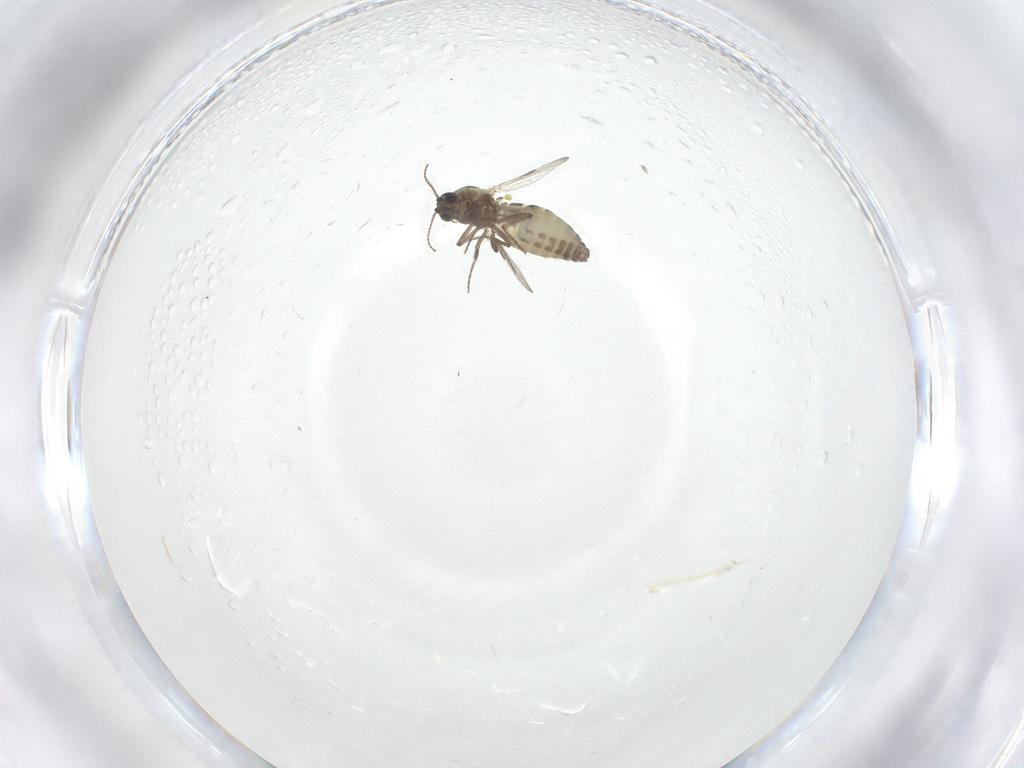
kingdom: Animalia
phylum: Arthropoda
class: Insecta
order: Diptera
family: Ceratopogonidae
